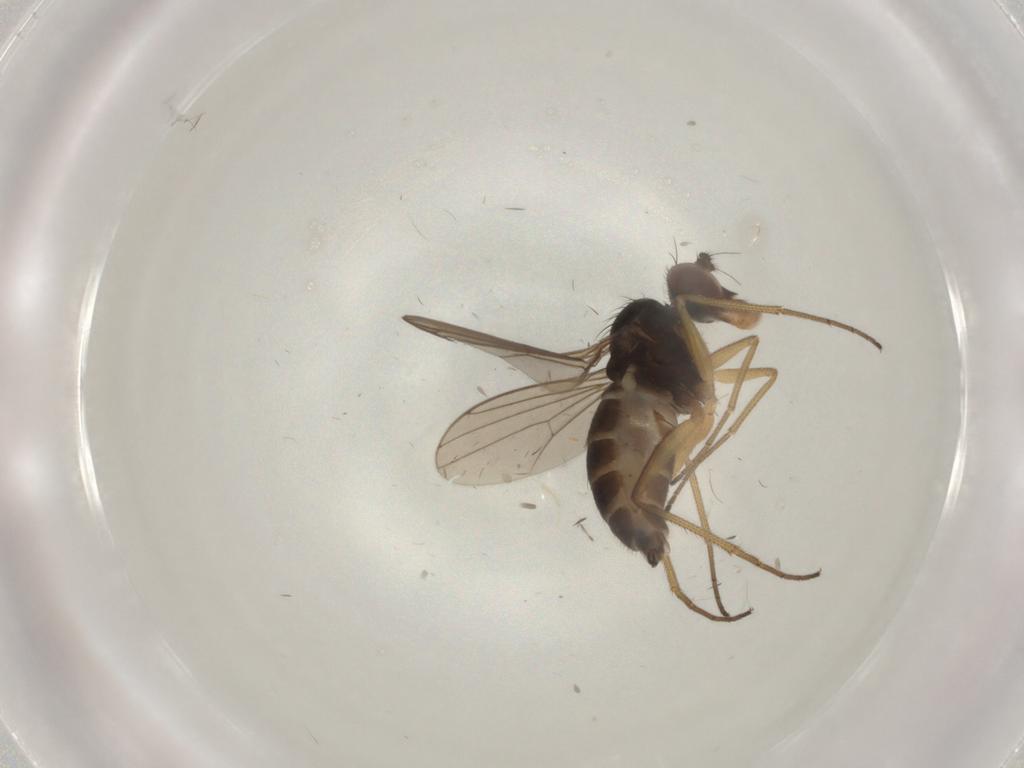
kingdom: Animalia
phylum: Arthropoda
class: Insecta
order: Diptera
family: Dolichopodidae
